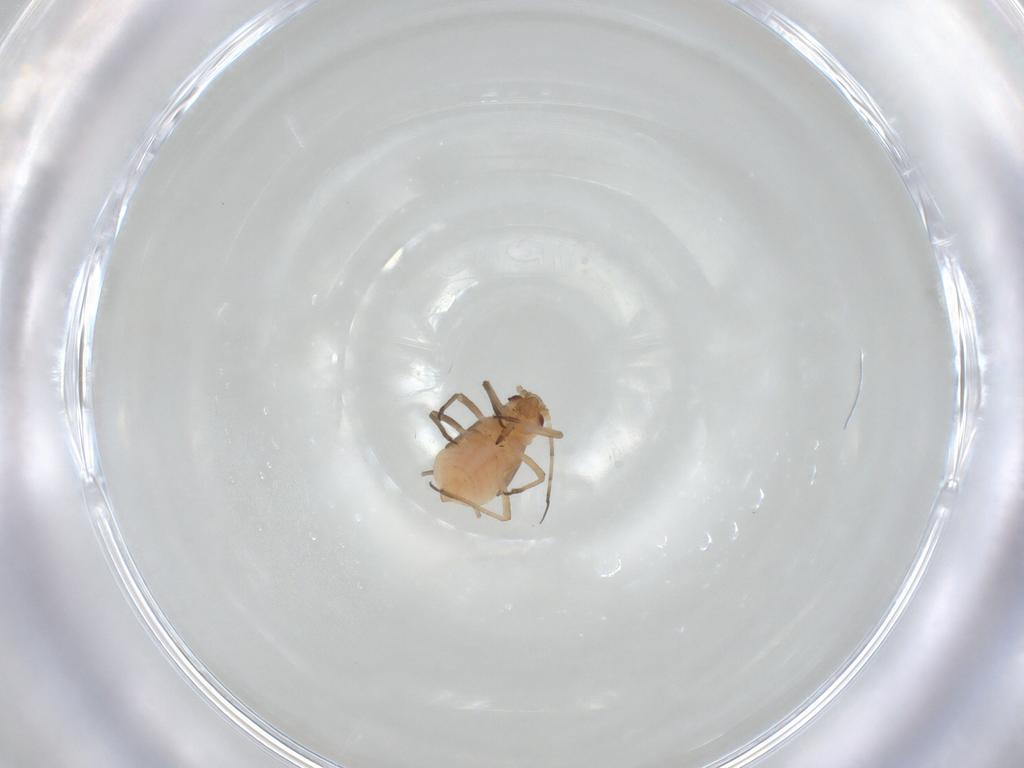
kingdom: Animalia
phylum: Arthropoda
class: Insecta
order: Hemiptera
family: Aphididae
